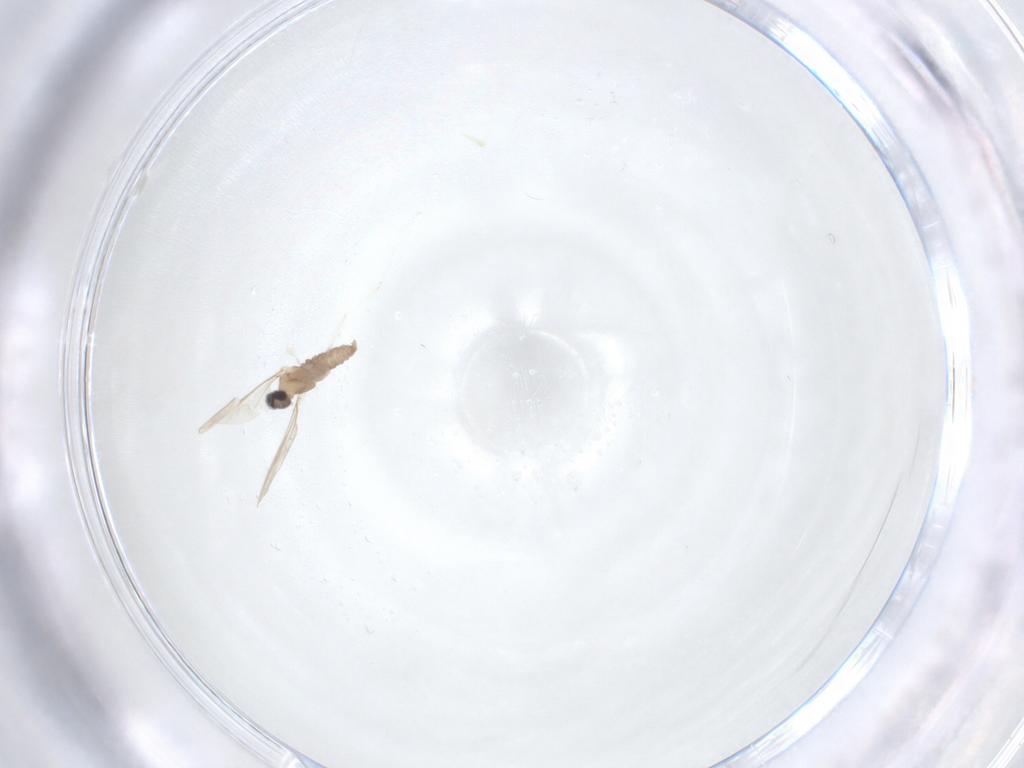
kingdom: Animalia
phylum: Arthropoda
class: Insecta
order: Diptera
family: Cecidomyiidae
